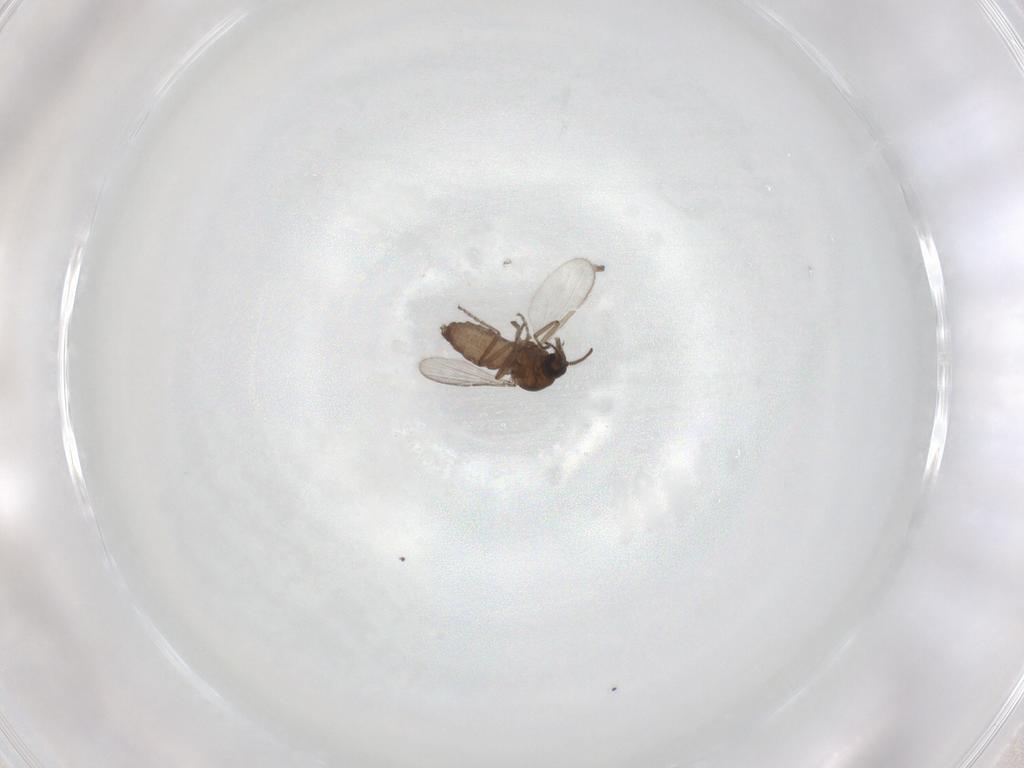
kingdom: Animalia
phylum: Arthropoda
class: Insecta
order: Diptera
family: Ceratopogonidae
